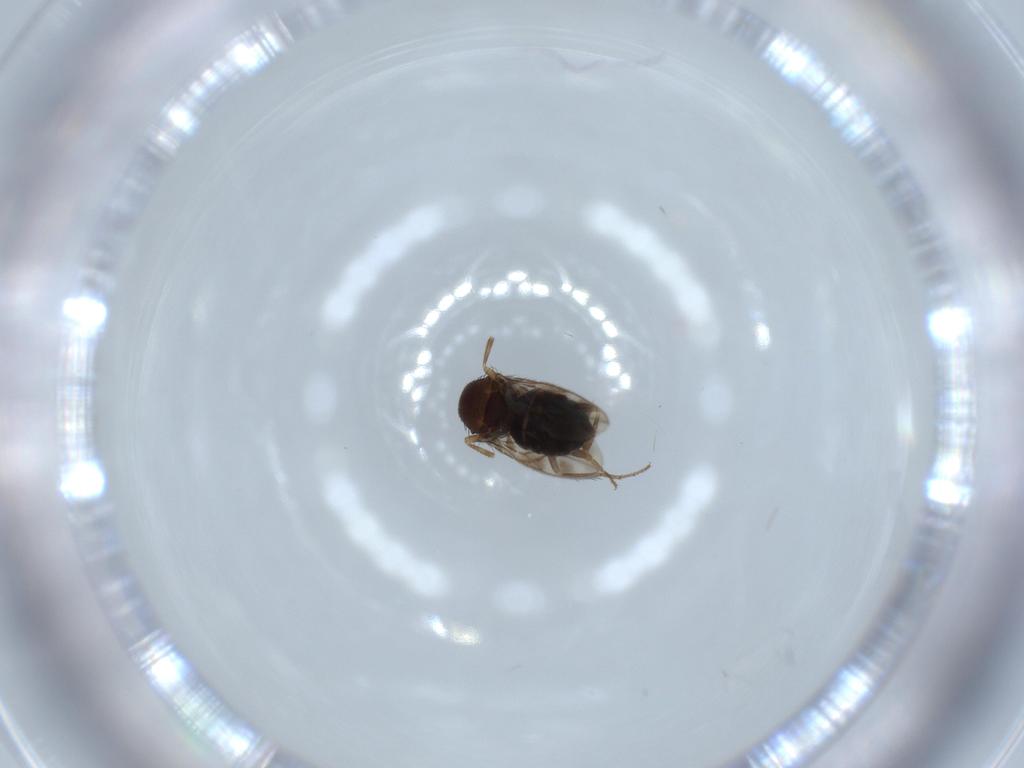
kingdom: Animalia
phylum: Arthropoda
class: Insecta
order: Diptera
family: Sphaeroceridae
